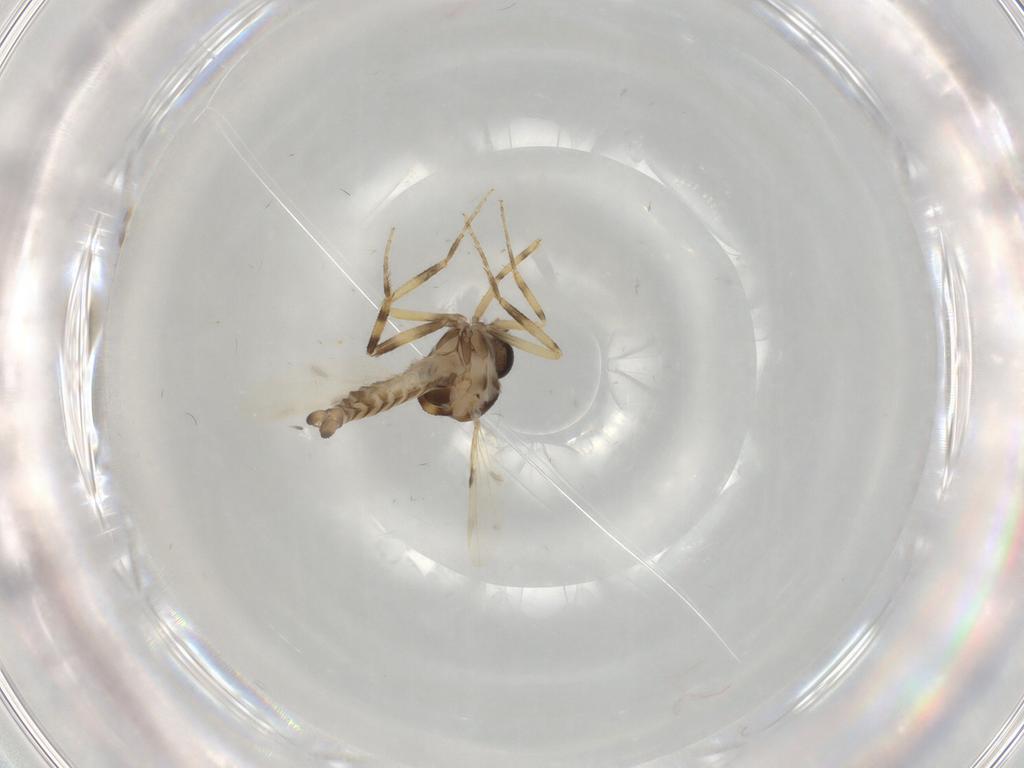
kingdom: Animalia
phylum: Arthropoda
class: Insecta
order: Diptera
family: Ceratopogonidae
